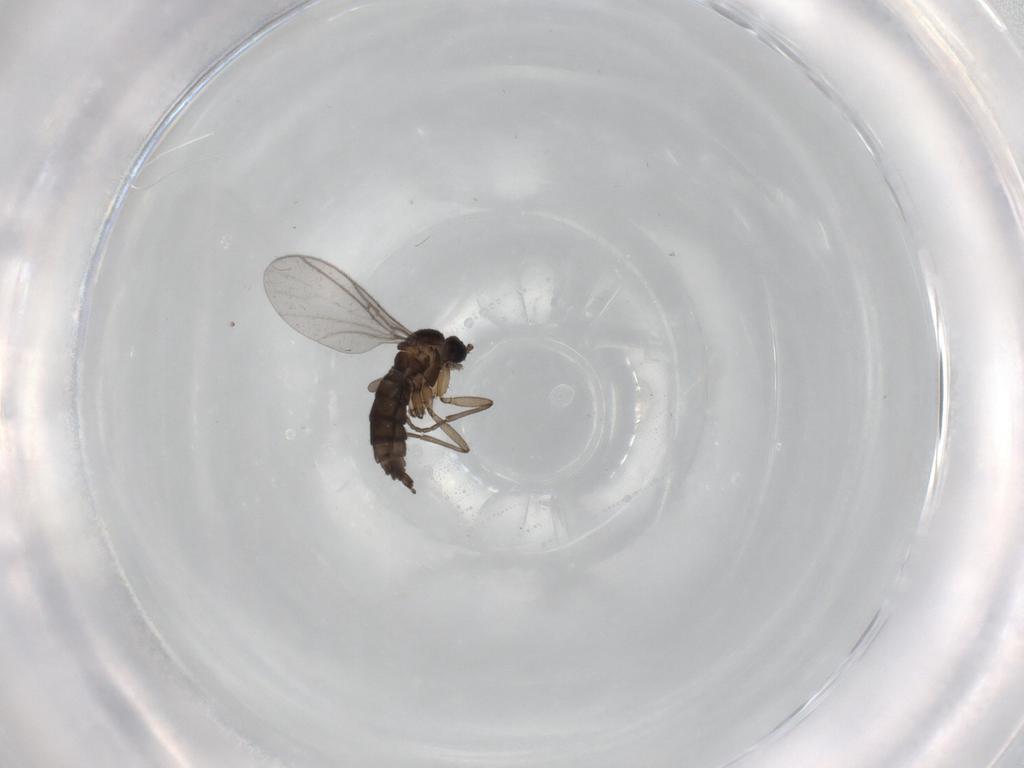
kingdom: Animalia
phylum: Arthropoda
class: Insecta
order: Diptera
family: Sciaridae
